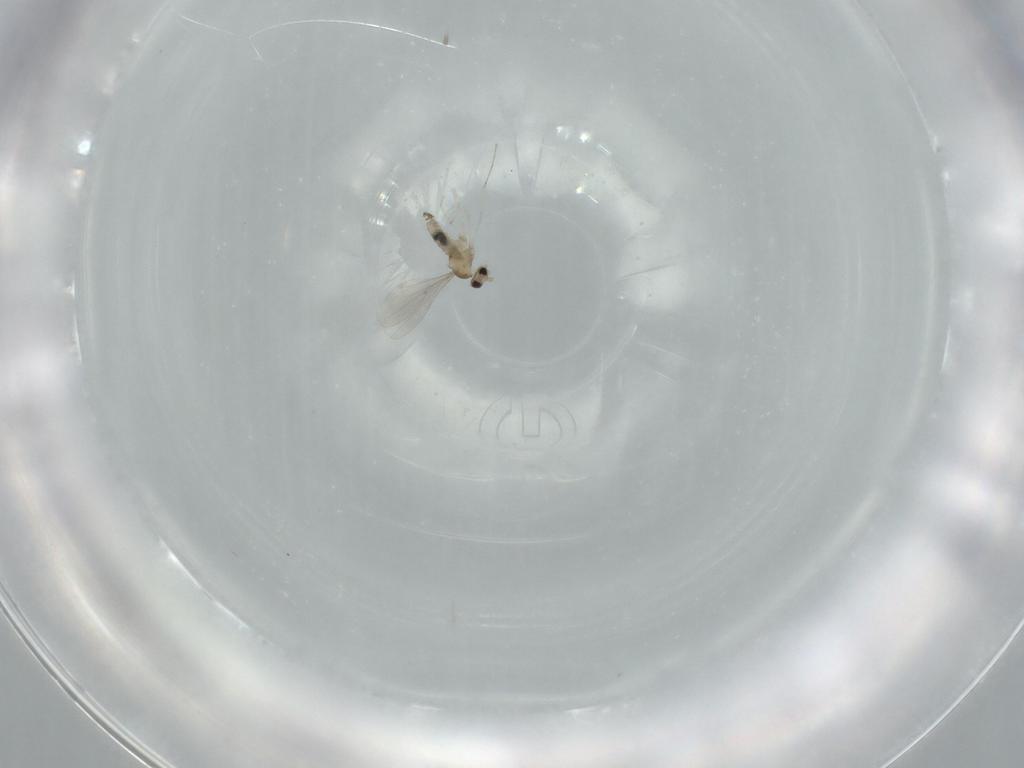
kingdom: Animalia
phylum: Arthropoda
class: Insecta
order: Diptera
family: Cecidomyiidae
